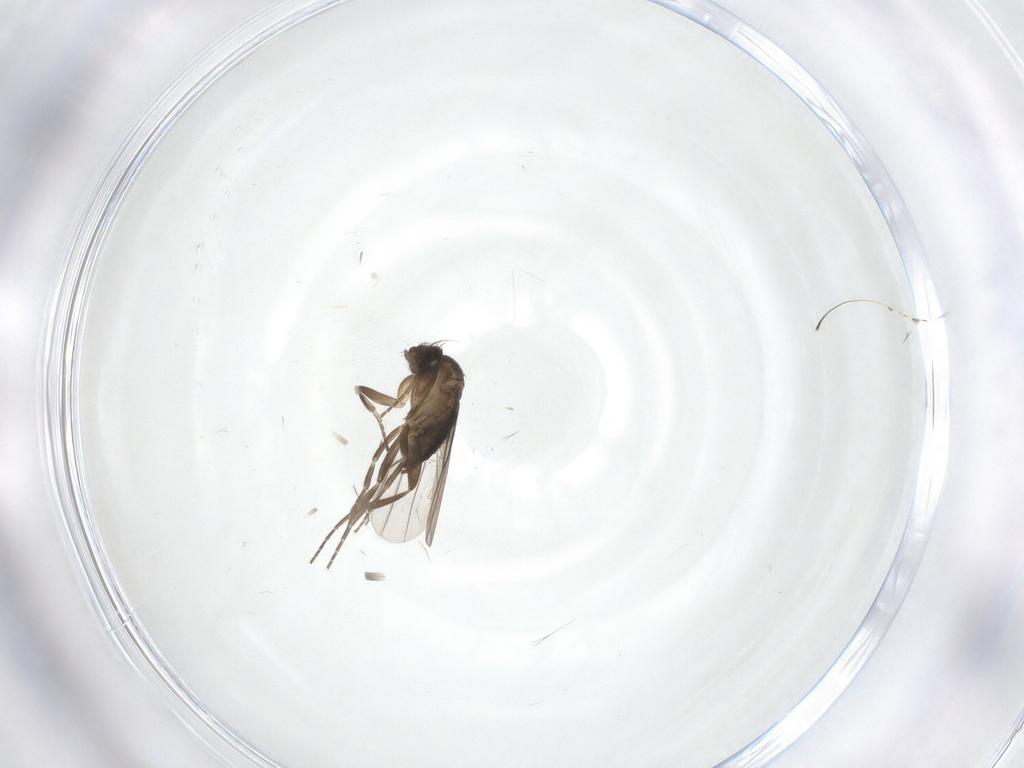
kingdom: Animalia
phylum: Arthropoda
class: Insecta
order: Diptera
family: Phoridae
